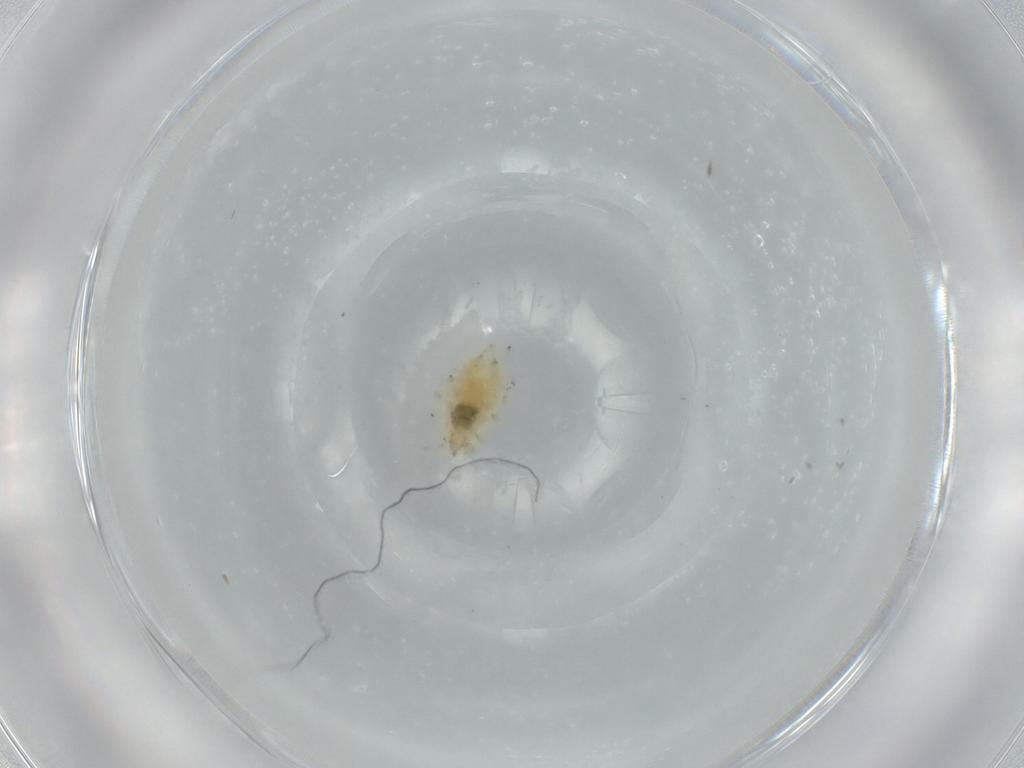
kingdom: Animalia
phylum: Arthropoda
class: Insecta
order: Neuroptera
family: Coniopterygidae
